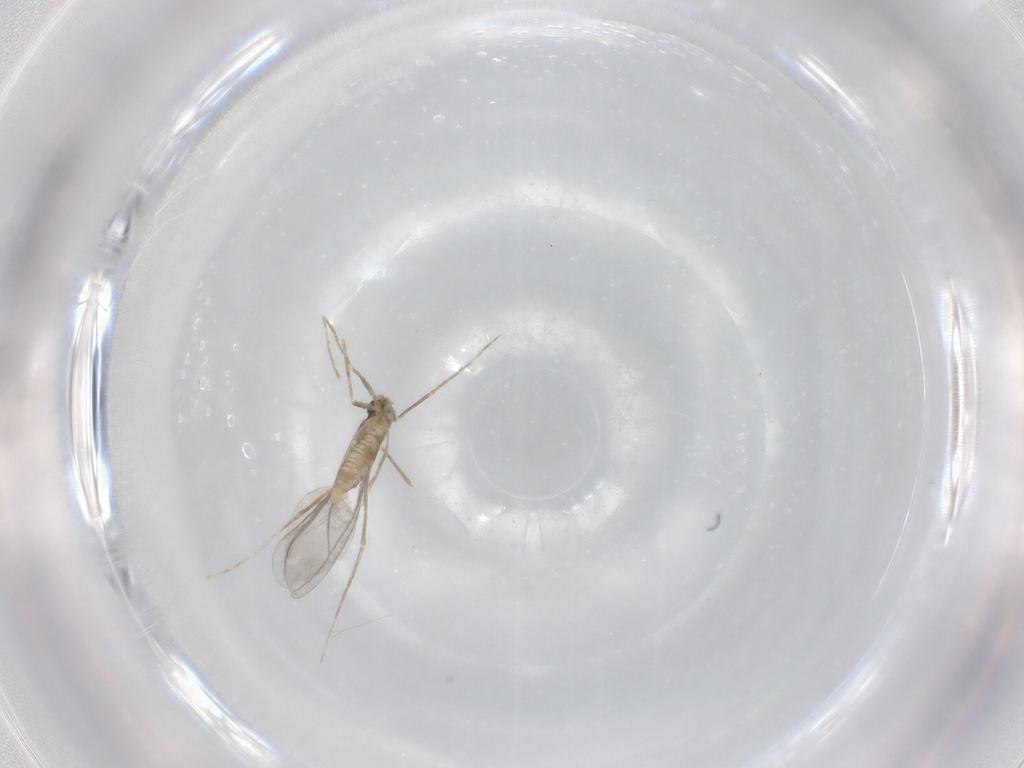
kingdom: Animalia
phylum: Arthropoda
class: Insecta
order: Diptera
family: Cecidomyiidae
